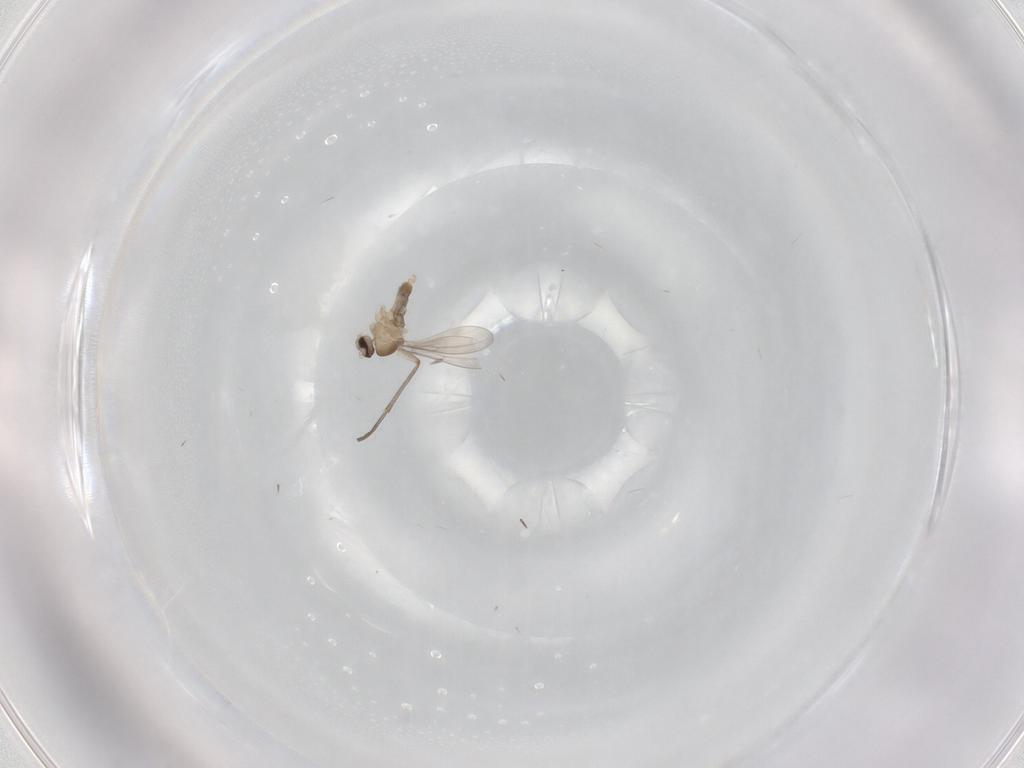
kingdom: Animalia
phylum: Arthropoda
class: Insecta
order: Diptera
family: Cecidomyiidae
